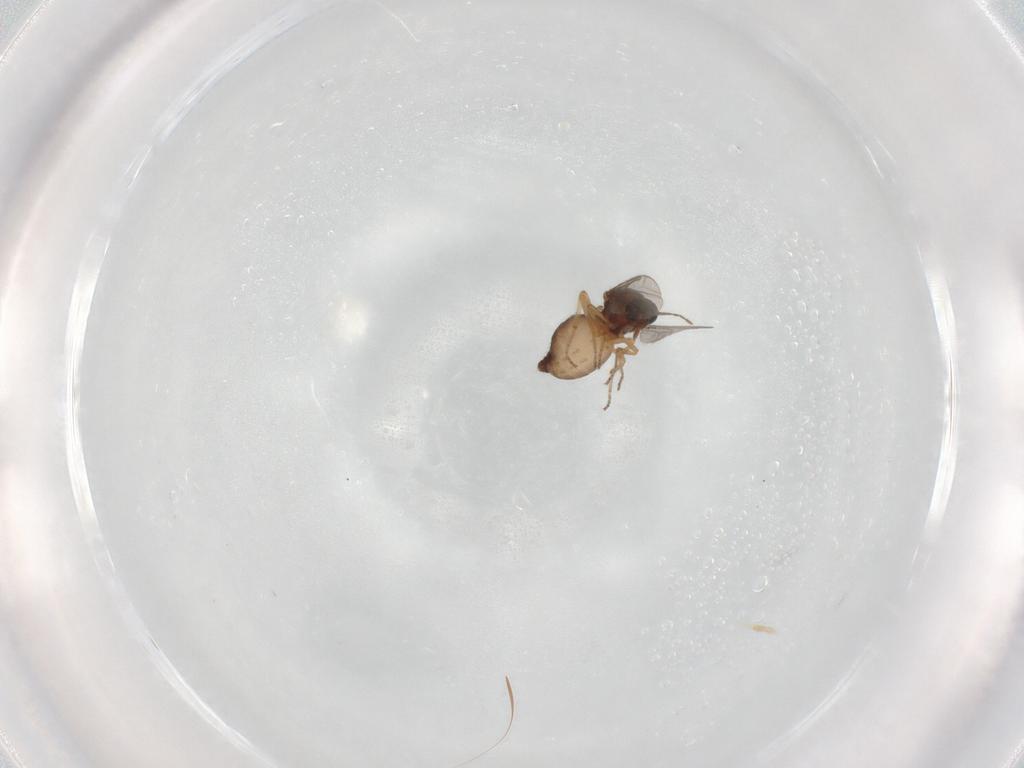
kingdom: Animalia
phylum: Arthropoda
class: Insecta
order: Diptera
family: Ceratopogonidae
